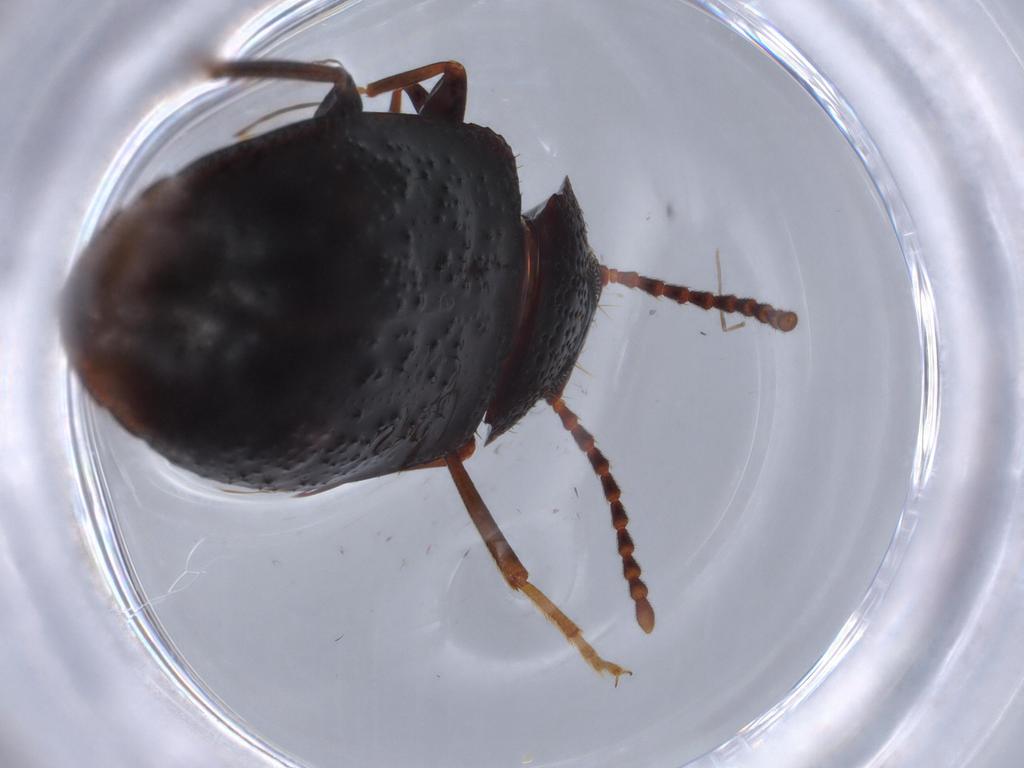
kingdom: Animalia
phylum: Arthropoda
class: Insecta
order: Coleoptera
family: Tenebrionidae
